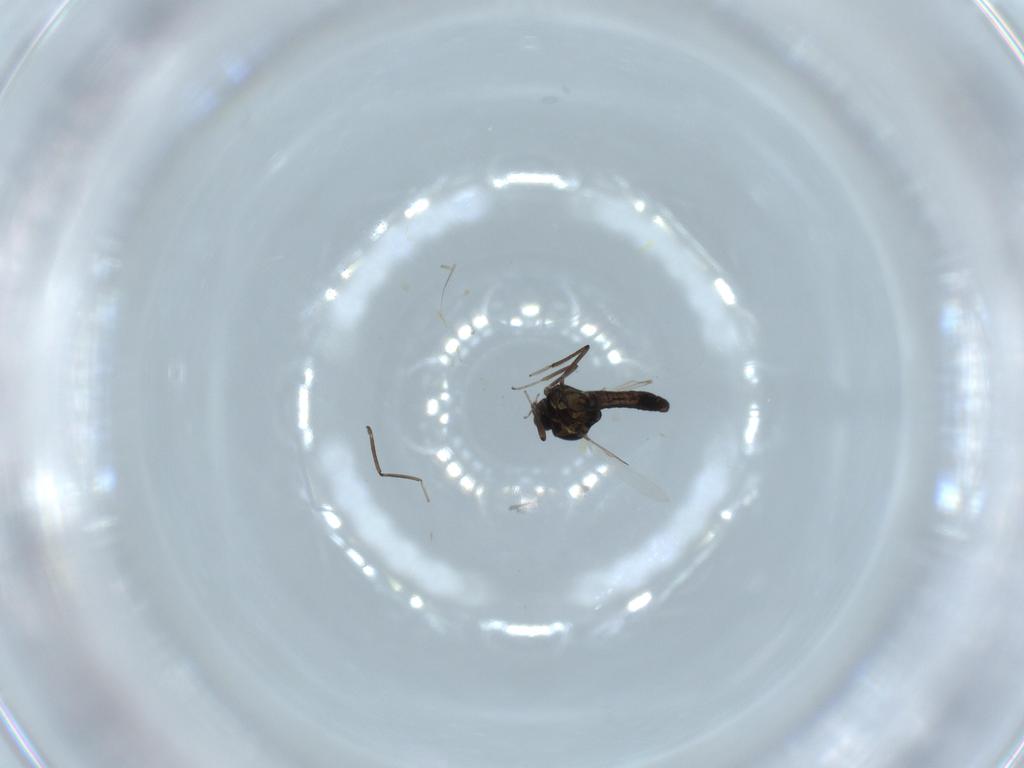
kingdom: Animalia
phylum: Arthropoda
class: Insecta
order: Diptera
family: Ceratopogonidae
